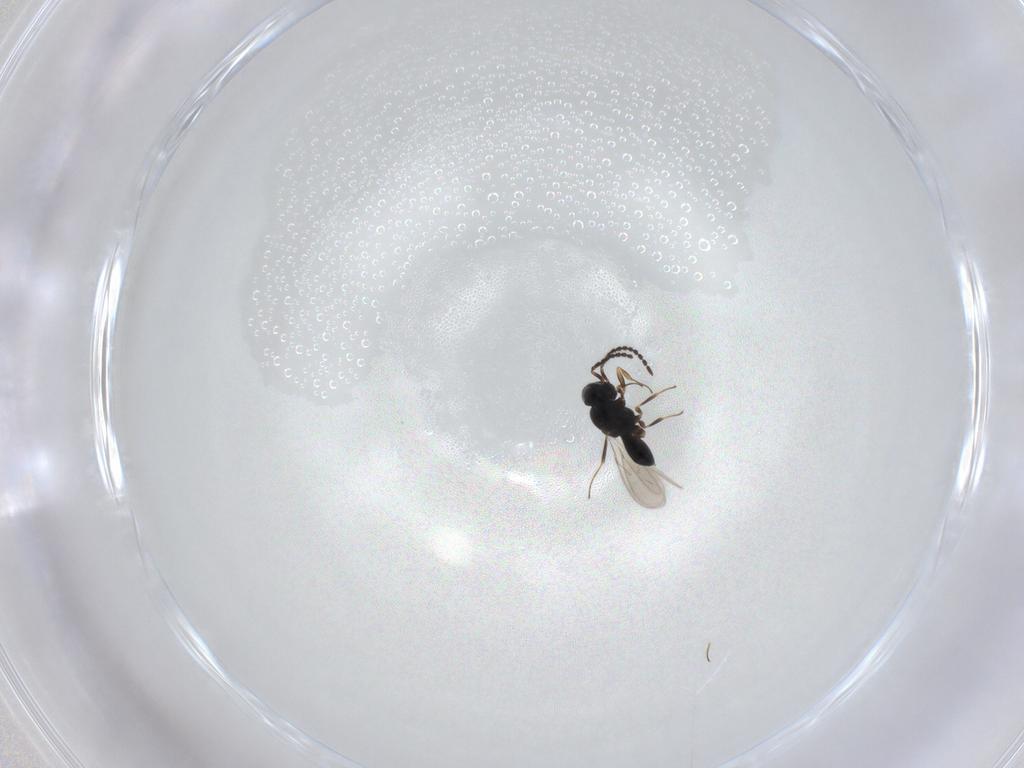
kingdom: Animalia
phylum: Arthropoda
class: Insecta
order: Hymenoptera
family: Scelionidae
